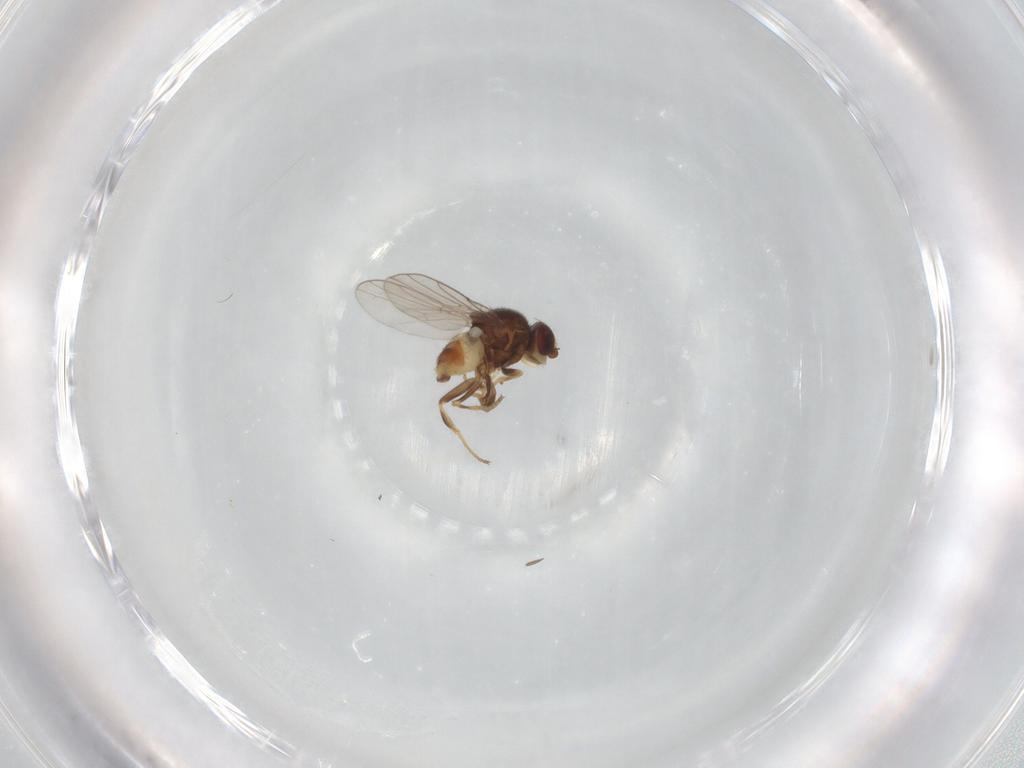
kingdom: Animalia
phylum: Arthropoda
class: Insecta
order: Diptera
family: Chloropidae
